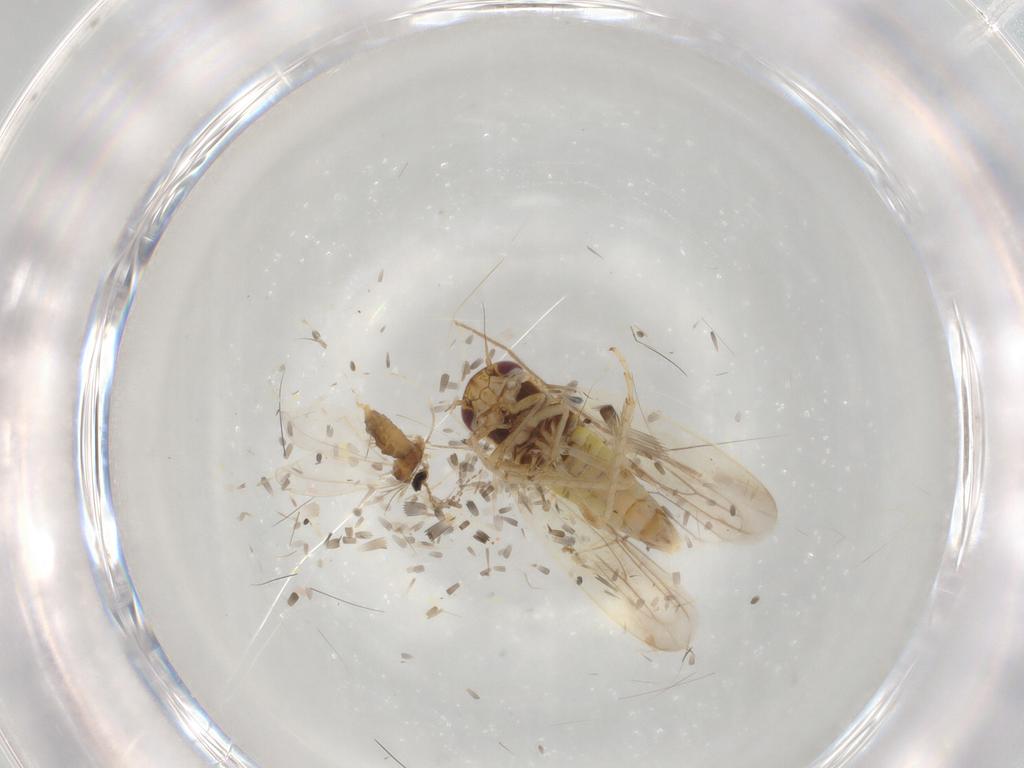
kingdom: Animalia
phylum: Arthropoda
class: Insecta
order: Diptera
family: Cecidomyiidae
